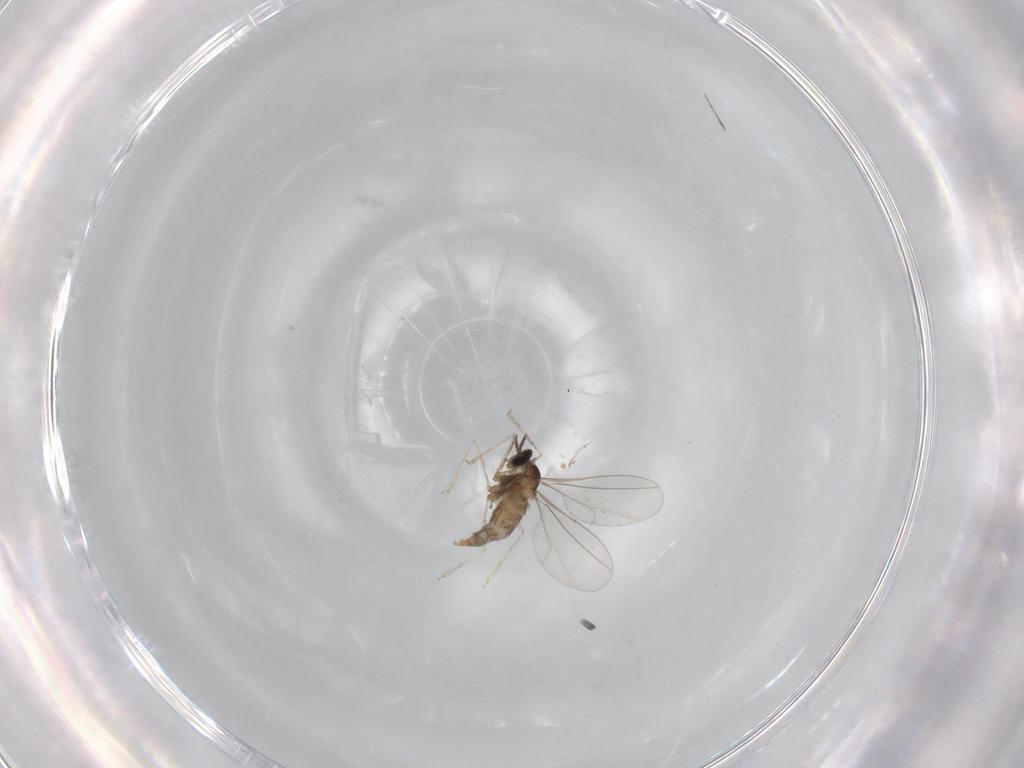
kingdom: Animalia
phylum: Arthropoda
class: Insecta
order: Diptera
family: Cecidomyiidae
